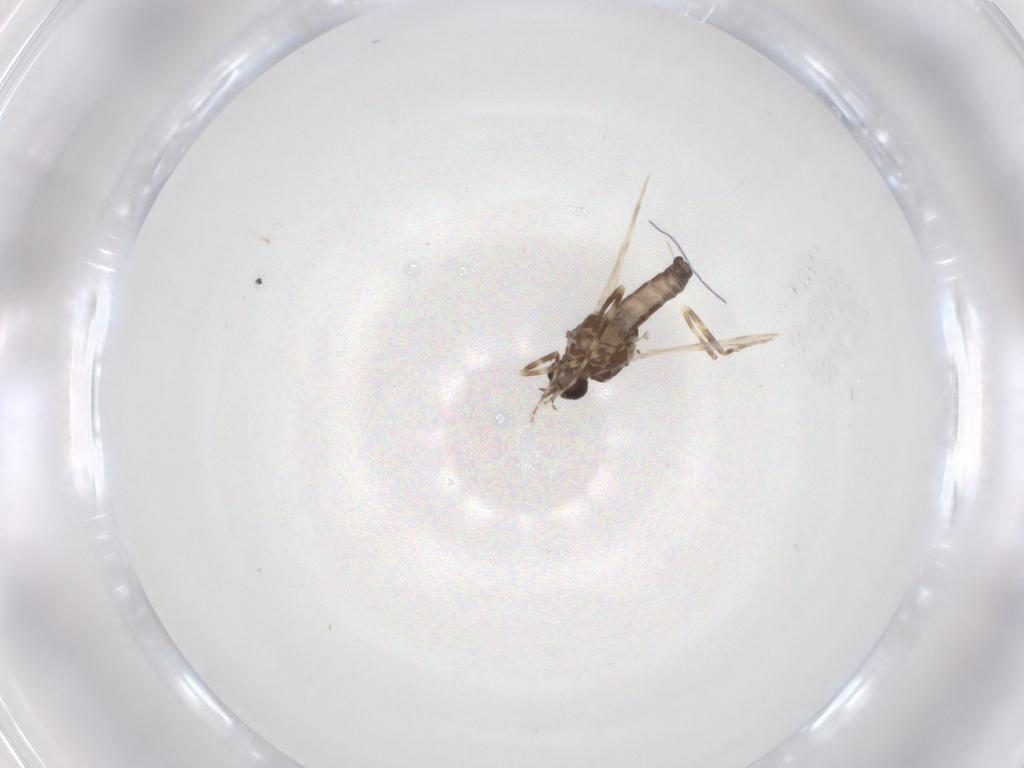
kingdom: Animalia
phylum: Arthropoda
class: Insecta
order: Diptera
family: Ceratopogonidae
